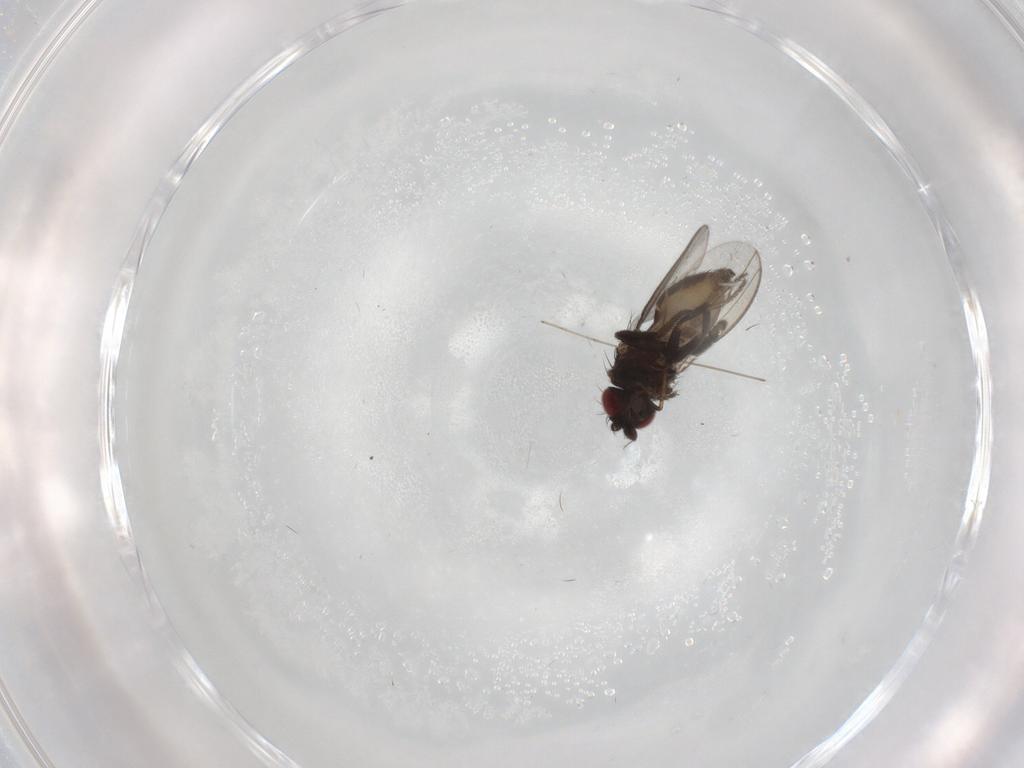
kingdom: Animalia
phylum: Arthropoda
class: Insecta
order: Diptera
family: Milichiidae
